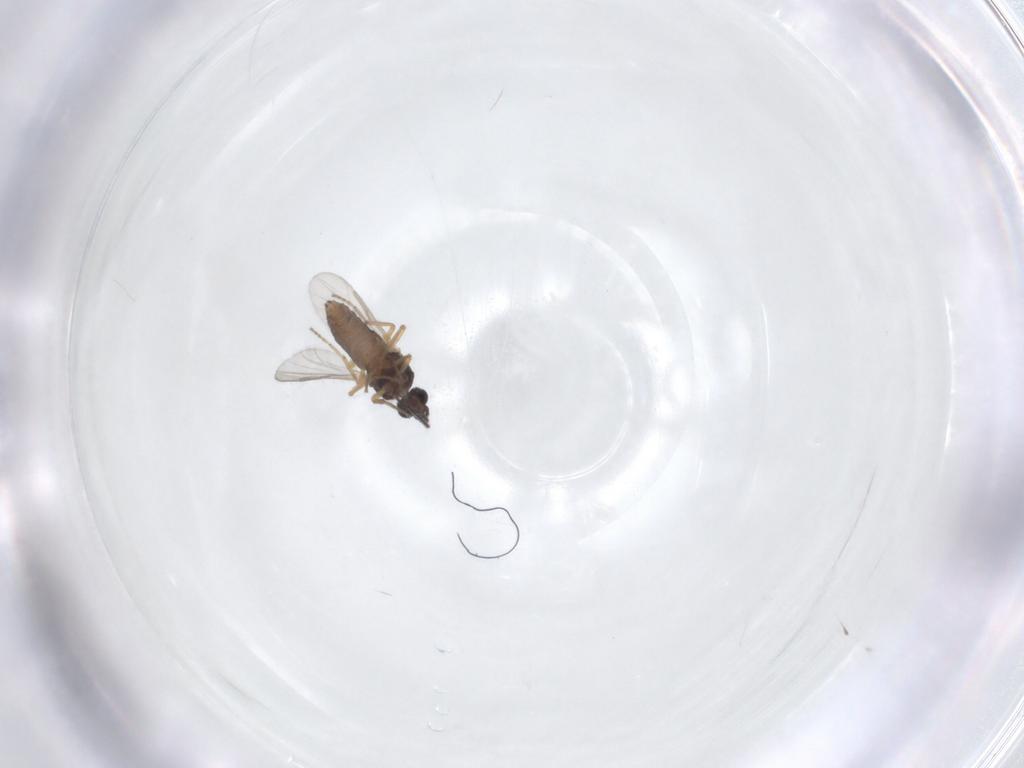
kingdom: Animalia
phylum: Arthropoda
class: Insecta
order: Diptera
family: Ceratopogonidae
